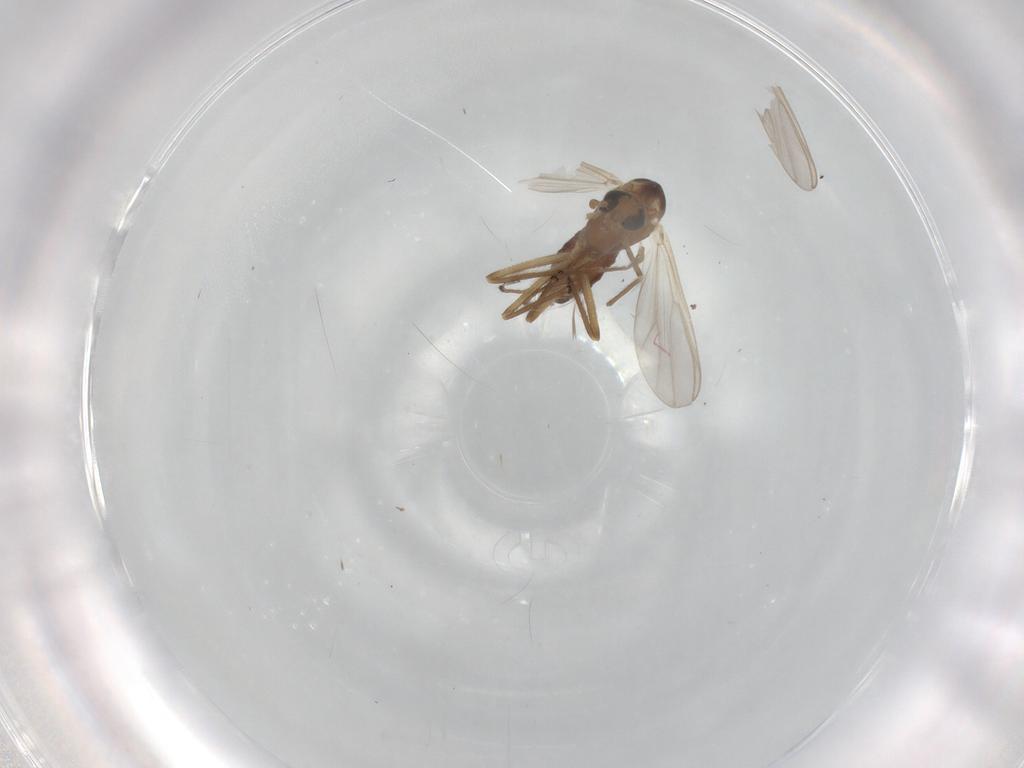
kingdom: Animalia
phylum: Arthropoda
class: Insecta
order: Diptera
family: Chironomidae
